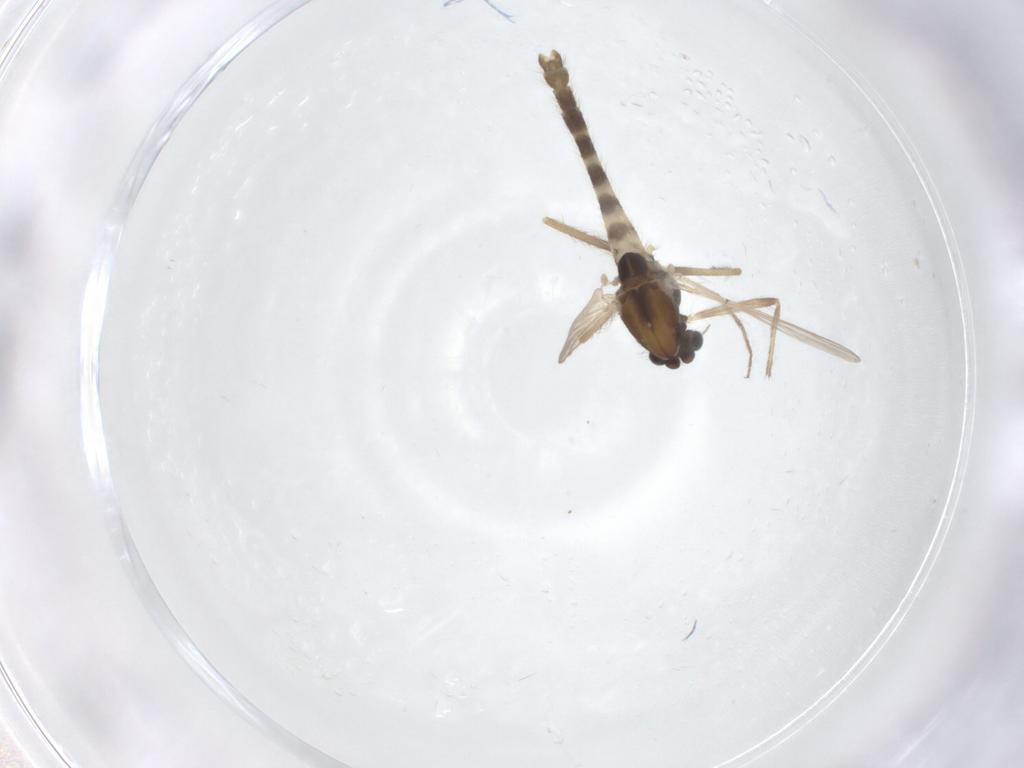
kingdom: Animalia
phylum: Arthropoda
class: Insecta
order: Diptera
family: Chironomidae
